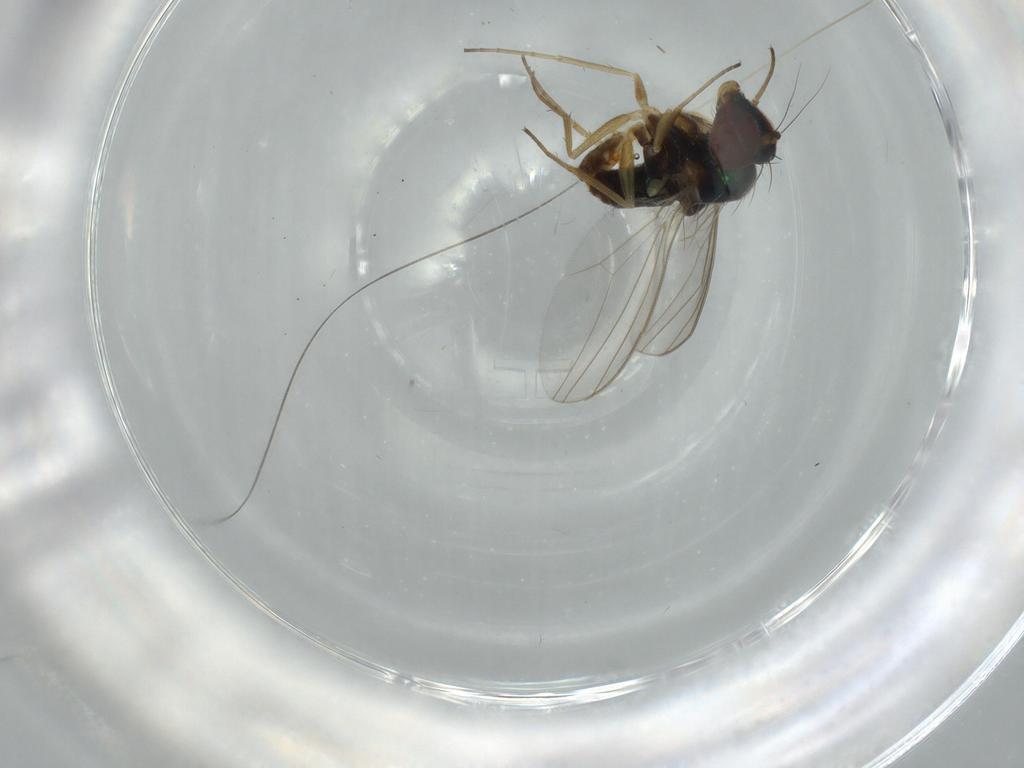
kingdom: Animalia
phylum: Arthropoda
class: Insecta
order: Diptera
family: Dolichopodidae
